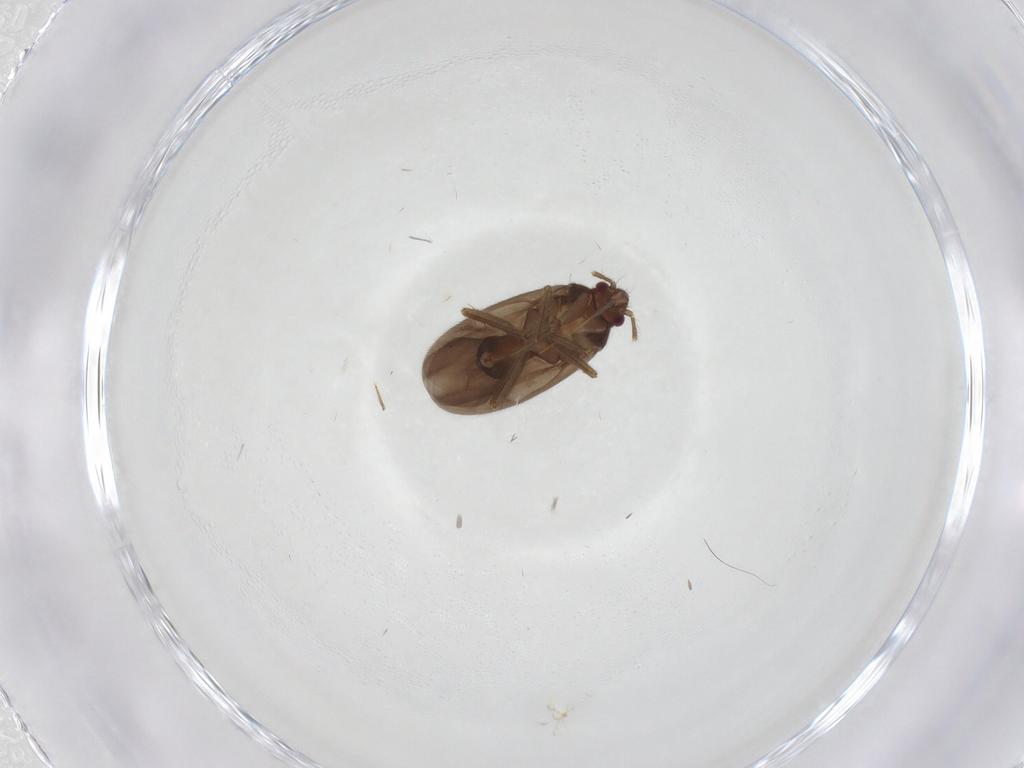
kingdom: Animalia
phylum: Arthropoda
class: Insecta
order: Hemiptera
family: Ceratocombidae
